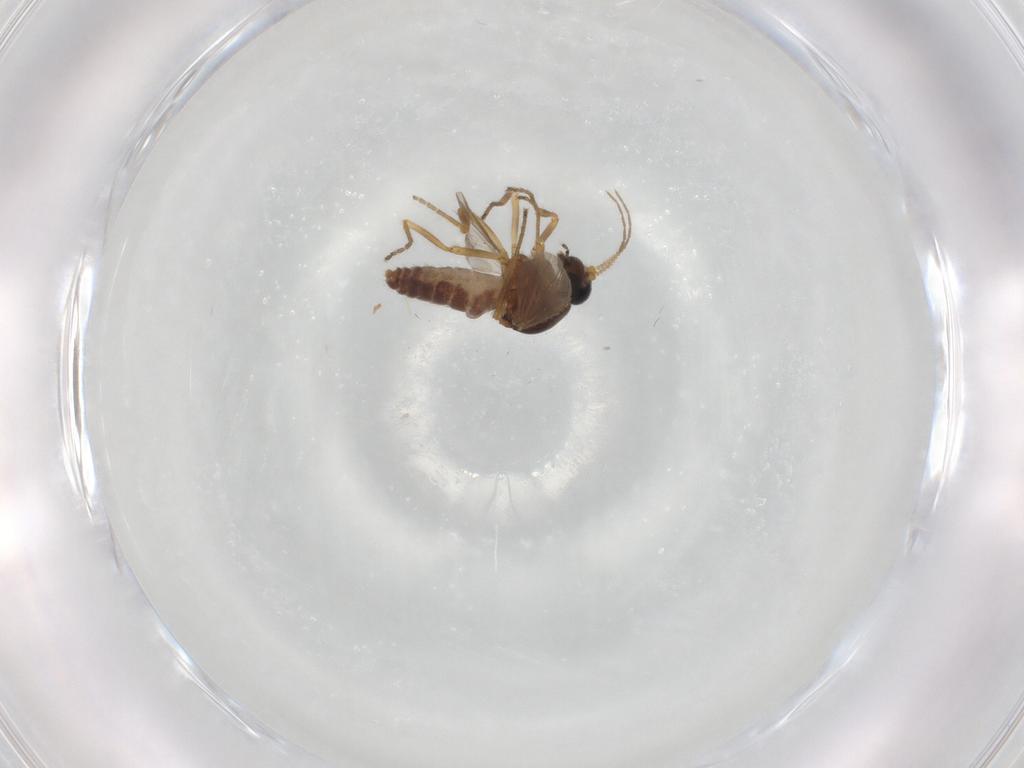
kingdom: Animalia
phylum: Arthropoda
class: Insecta
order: Diptera
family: Ceratopogonidae
